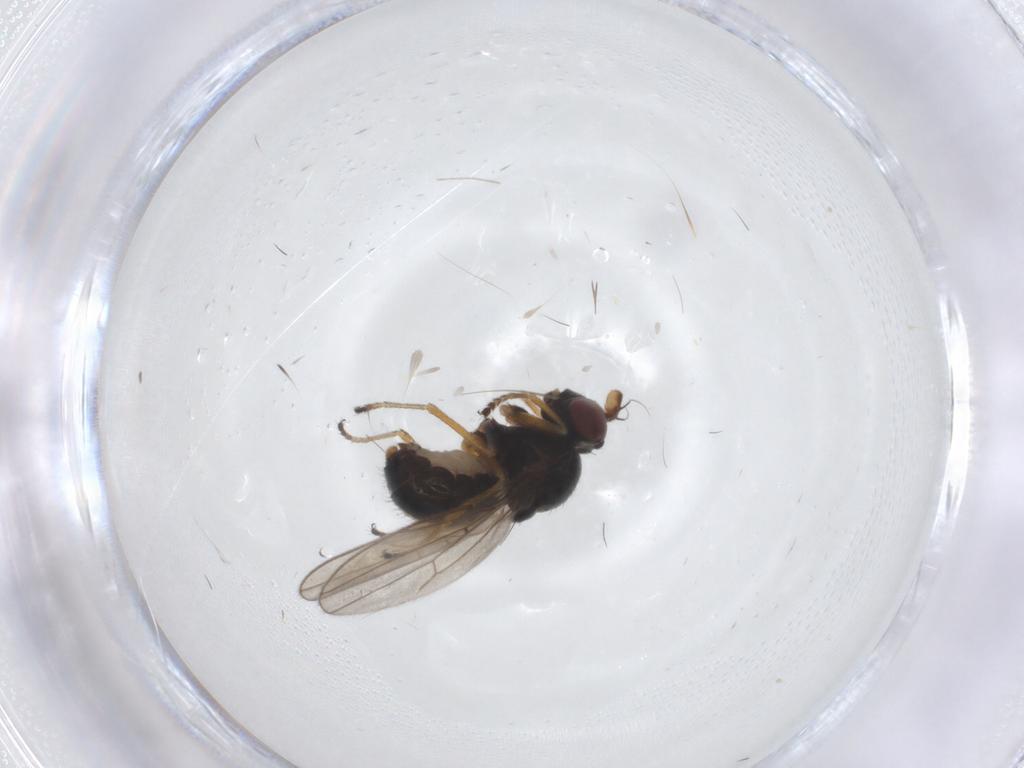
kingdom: Animalia
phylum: Arthropoda
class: Insecta
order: Diptera
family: Ephydridae
